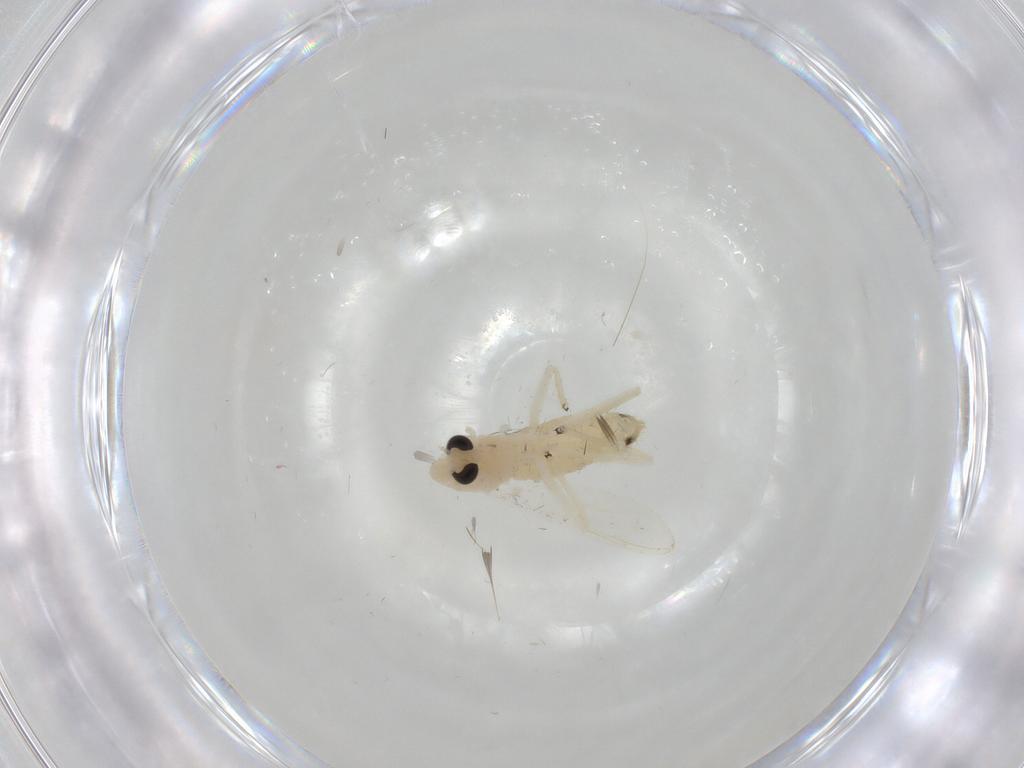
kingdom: Animalia
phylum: Arthropoda
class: Insecta
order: Diptera
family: Chironomidae
